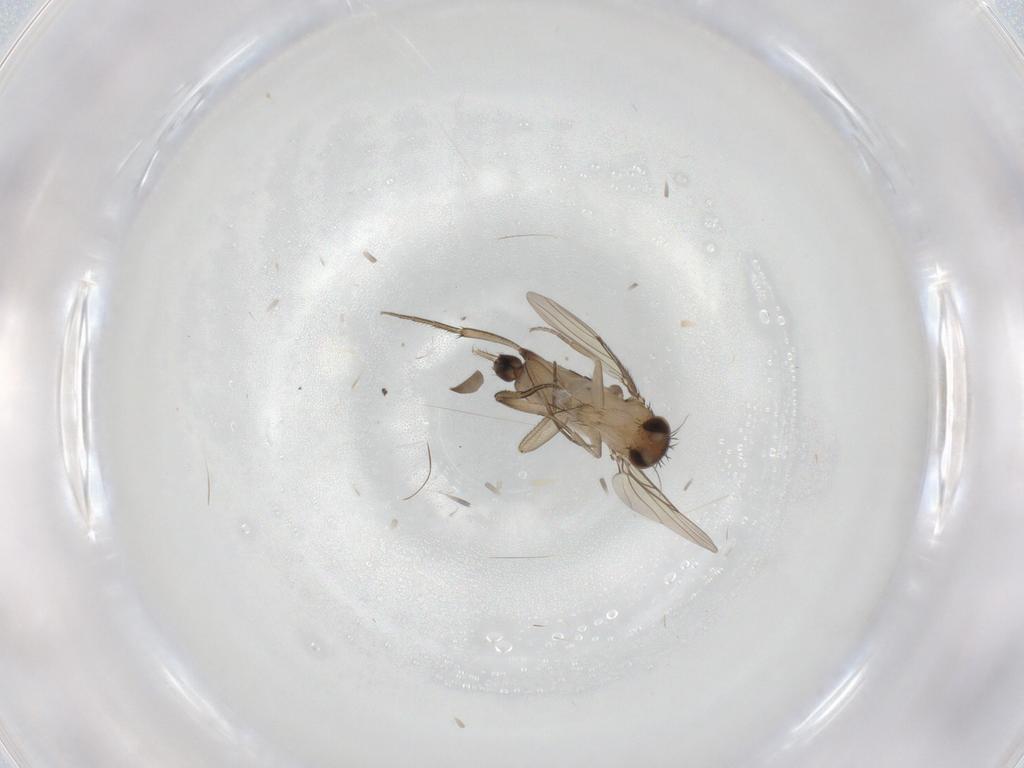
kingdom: Animalia
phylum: Arthropoda
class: Insecta
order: Diptera
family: Phoridae
